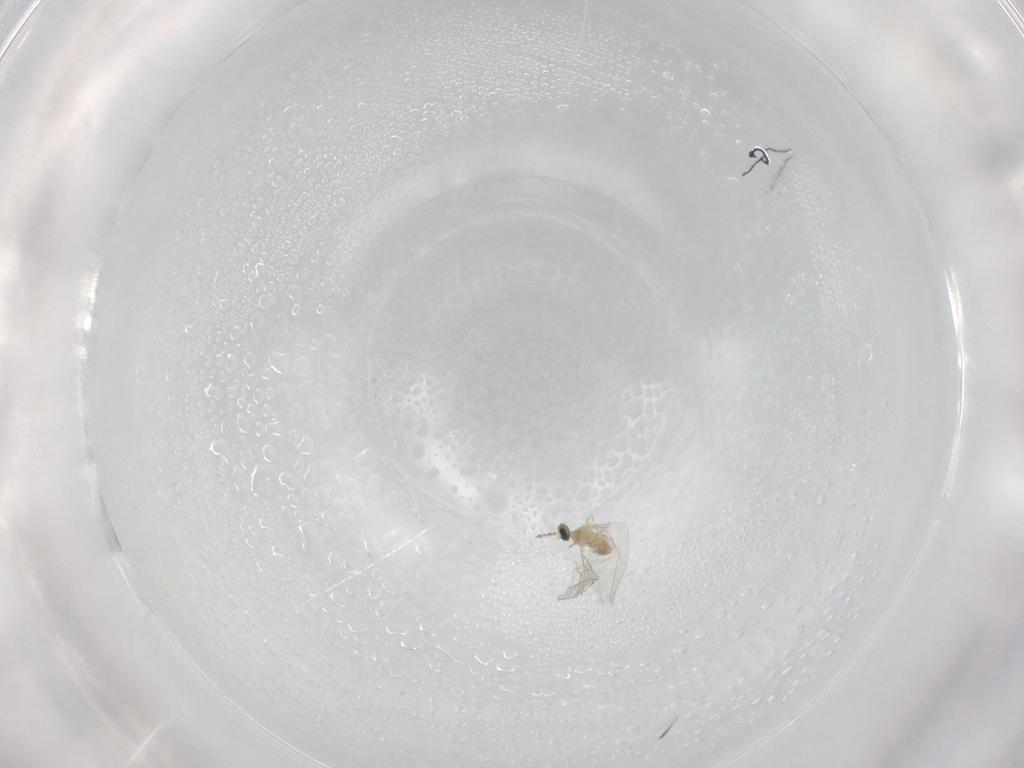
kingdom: Animalia
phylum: Arthropoda
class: Insecta
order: Diptera
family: Cecidomyiidae
